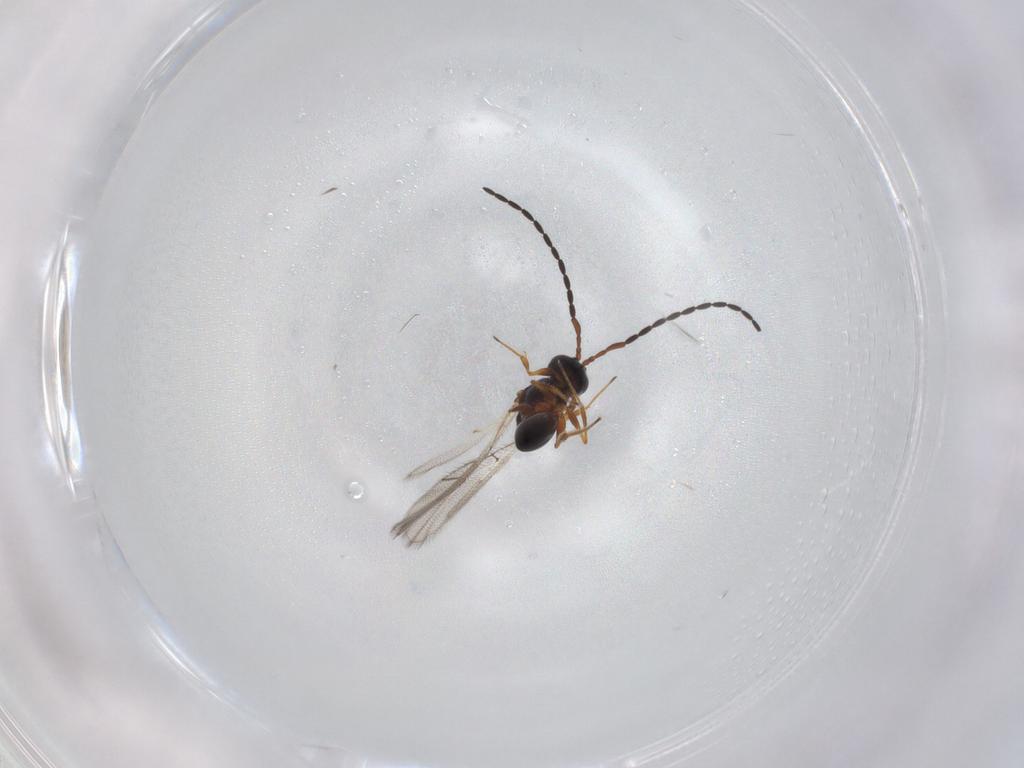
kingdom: Animalia
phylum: Arthropoda
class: Insecta
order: Hymenoptera
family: Figitidae
